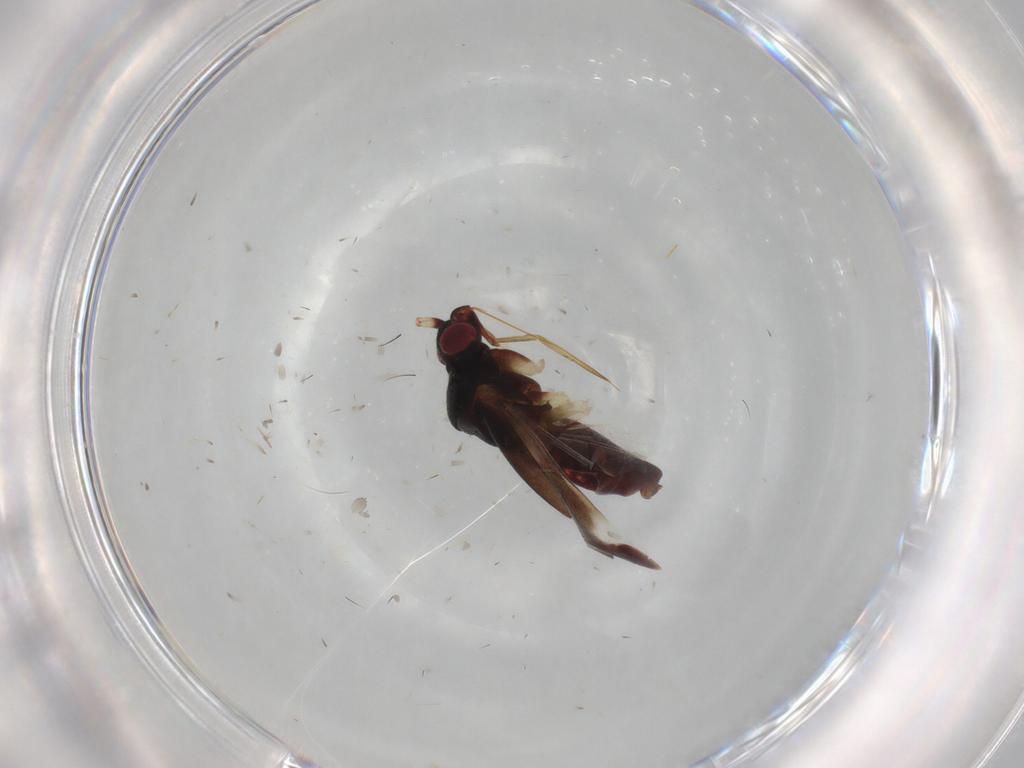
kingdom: Animalia
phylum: Arthropoda
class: Insecta
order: Hemiptera
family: Miridae
